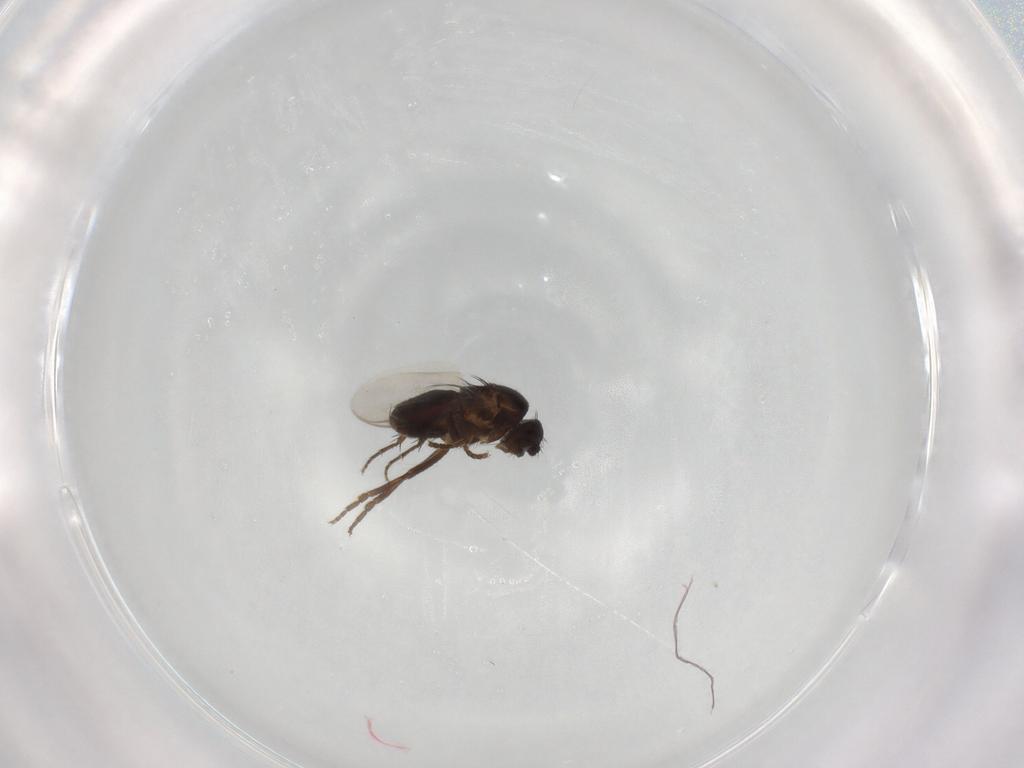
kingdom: Animalia
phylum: Arthropoda
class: Insecta
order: Diptera
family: Sphaeroceridae
